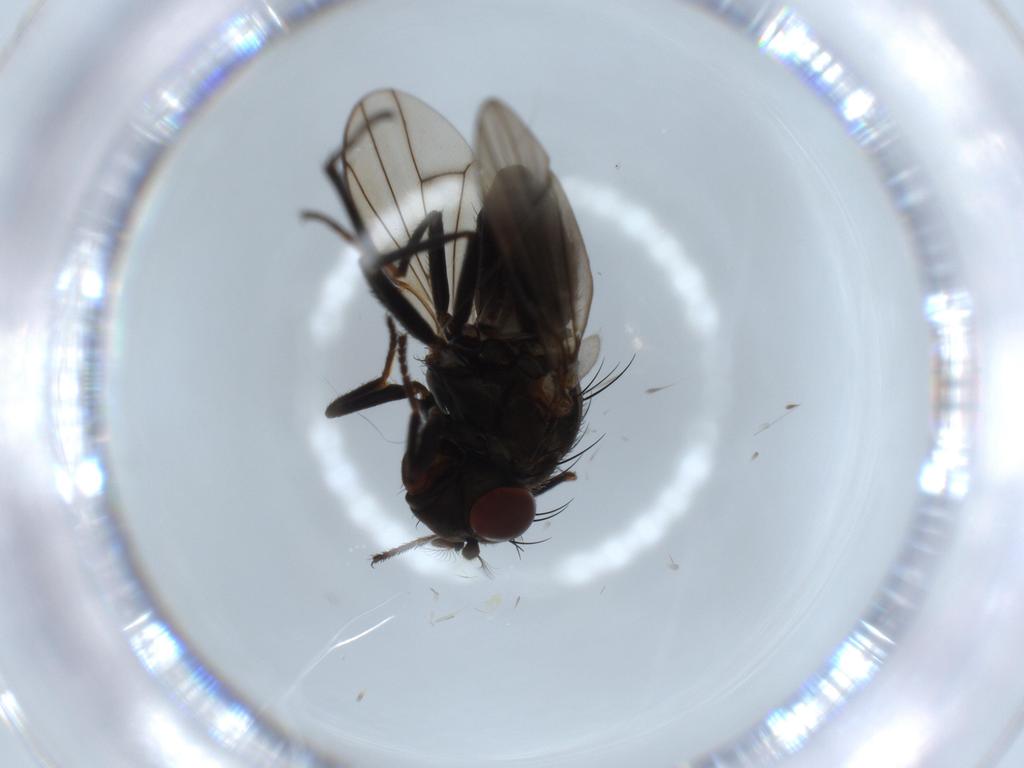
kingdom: Animalia
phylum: Arthropoda
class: Insecta
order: Diptera
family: Ephydridae
